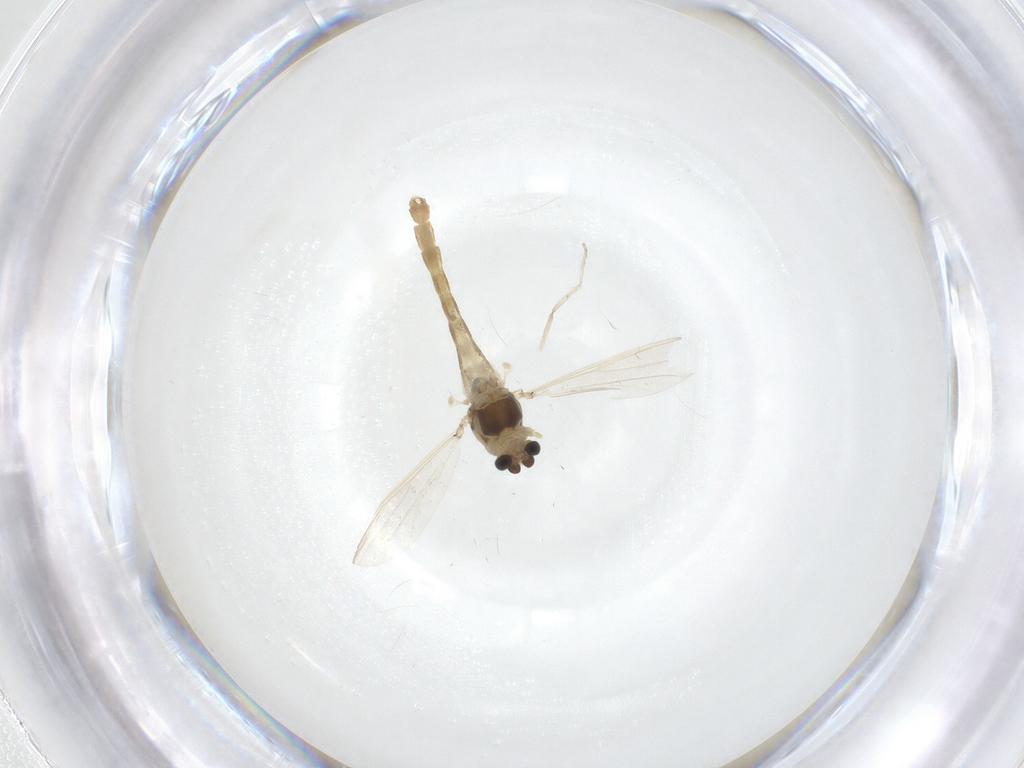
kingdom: Animalia
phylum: Arthropoda
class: Insecta
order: Diptera
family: Chironomidae
